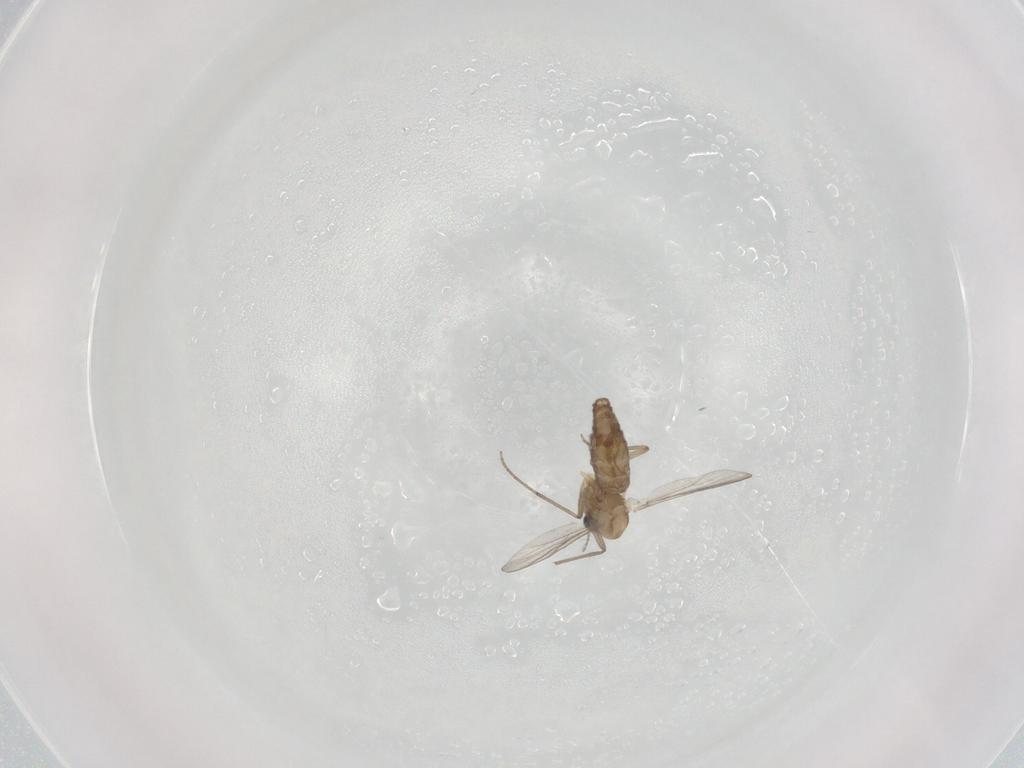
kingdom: Animalia
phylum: Arthropoda
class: Insecta
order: Diptera
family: Chironomidae
